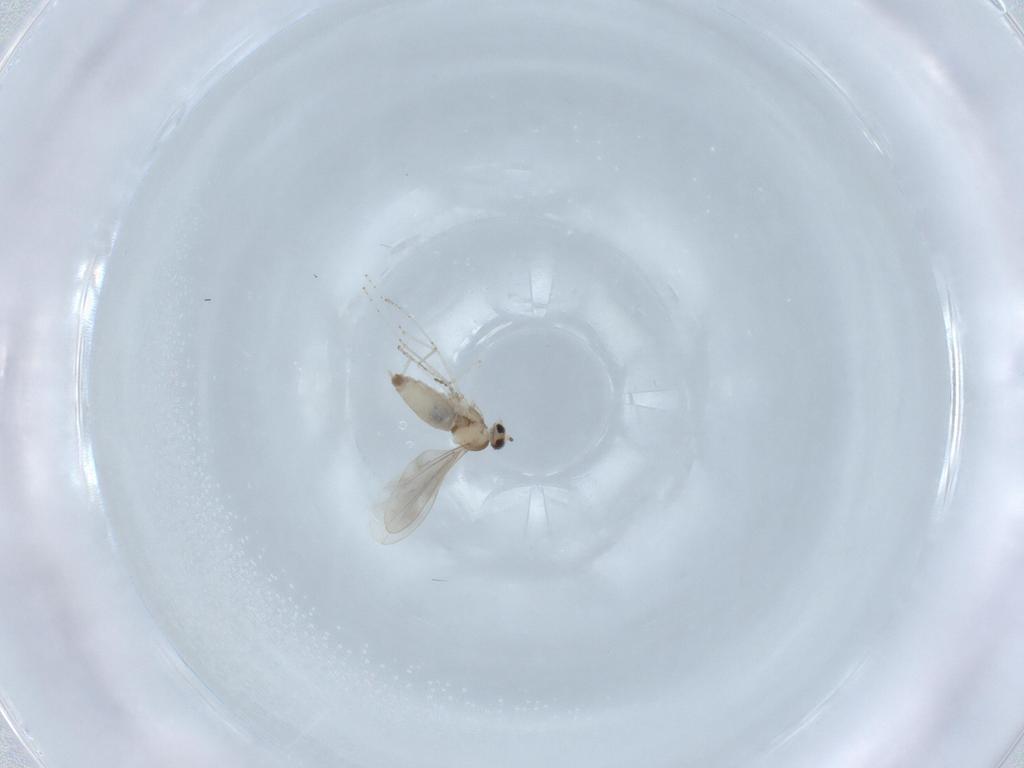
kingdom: Animalia
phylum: Arthropoda
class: Insecta
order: Diptera
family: Cecidomyiidae
